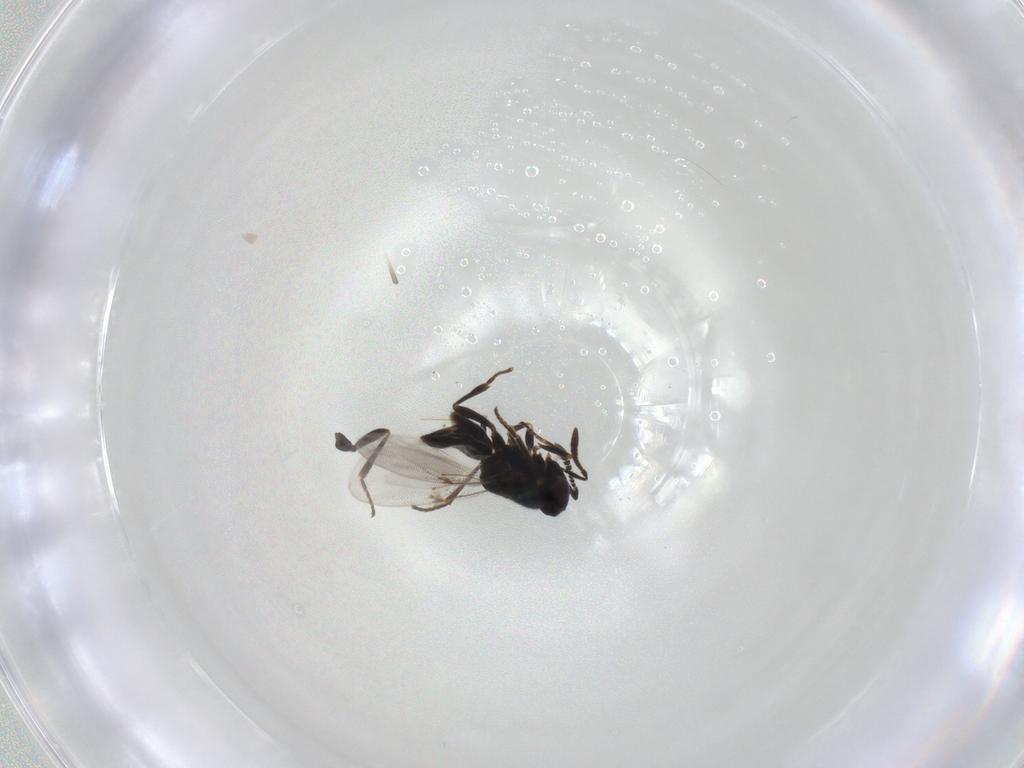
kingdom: Animalia
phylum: Arthropoda
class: Insecta
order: Hymenoptera
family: Encyrtidae
